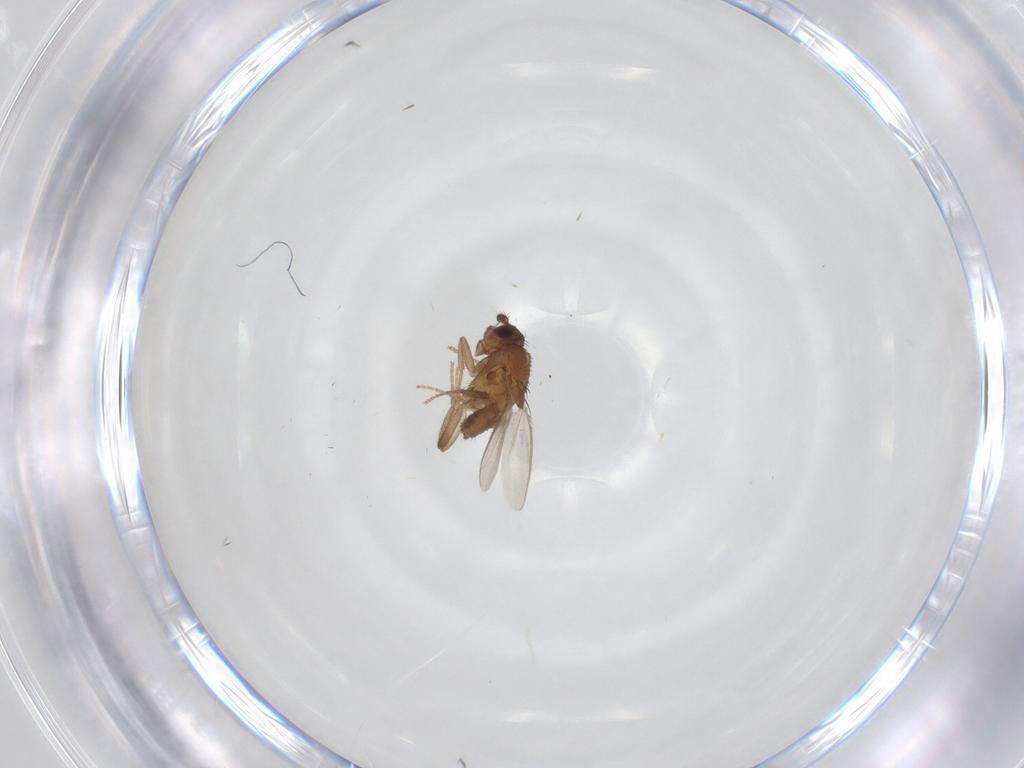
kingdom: Animalia
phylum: Arthropoda
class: Insecta
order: Diptera
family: Sphaeroceridae
